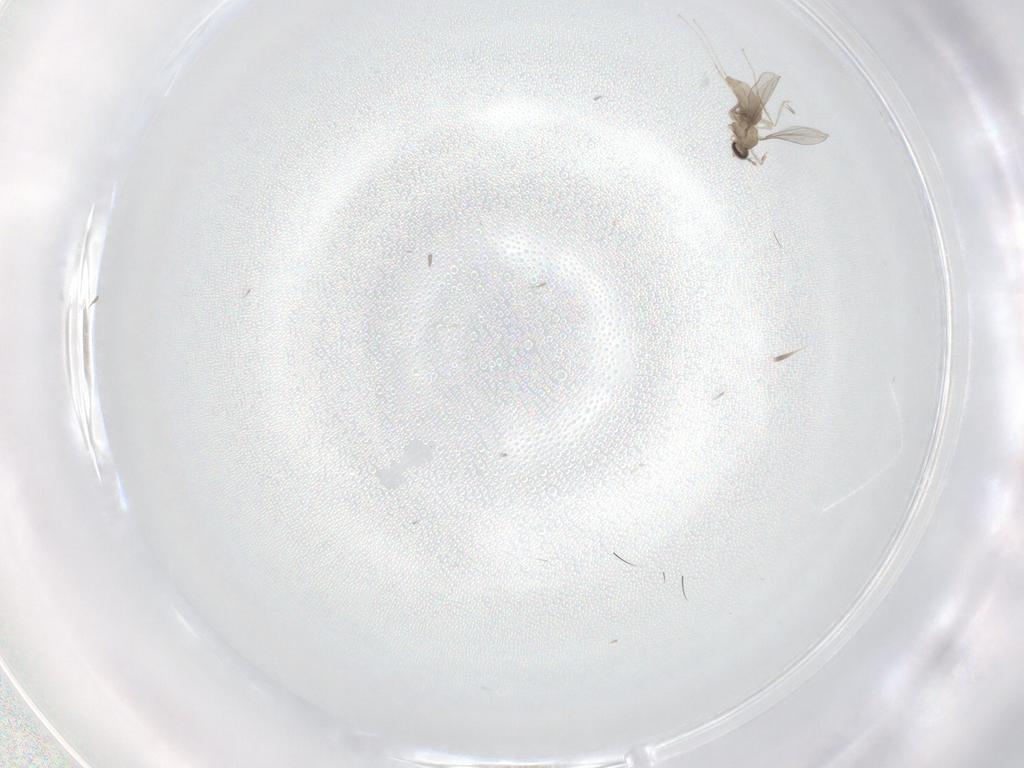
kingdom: Animalia
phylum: Arthropoda
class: Insecta
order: Diptera
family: Cecidomyiidae
